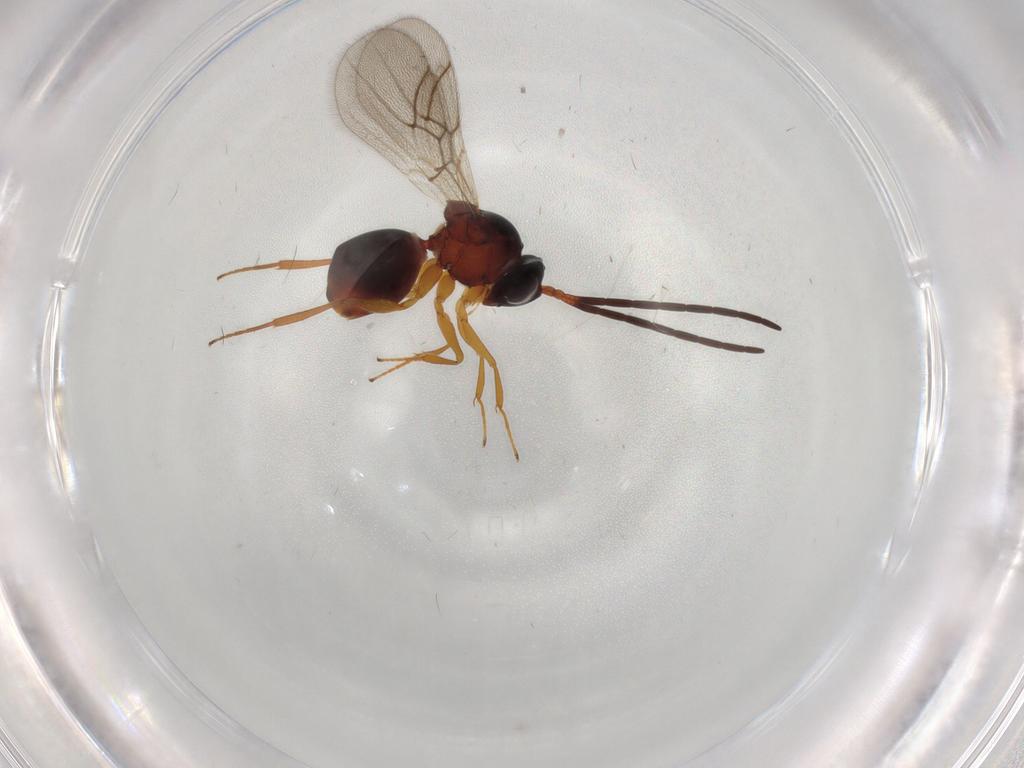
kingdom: Animalia
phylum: Arthropoda
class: Insecta
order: Hymenoptera
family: Figitidae
